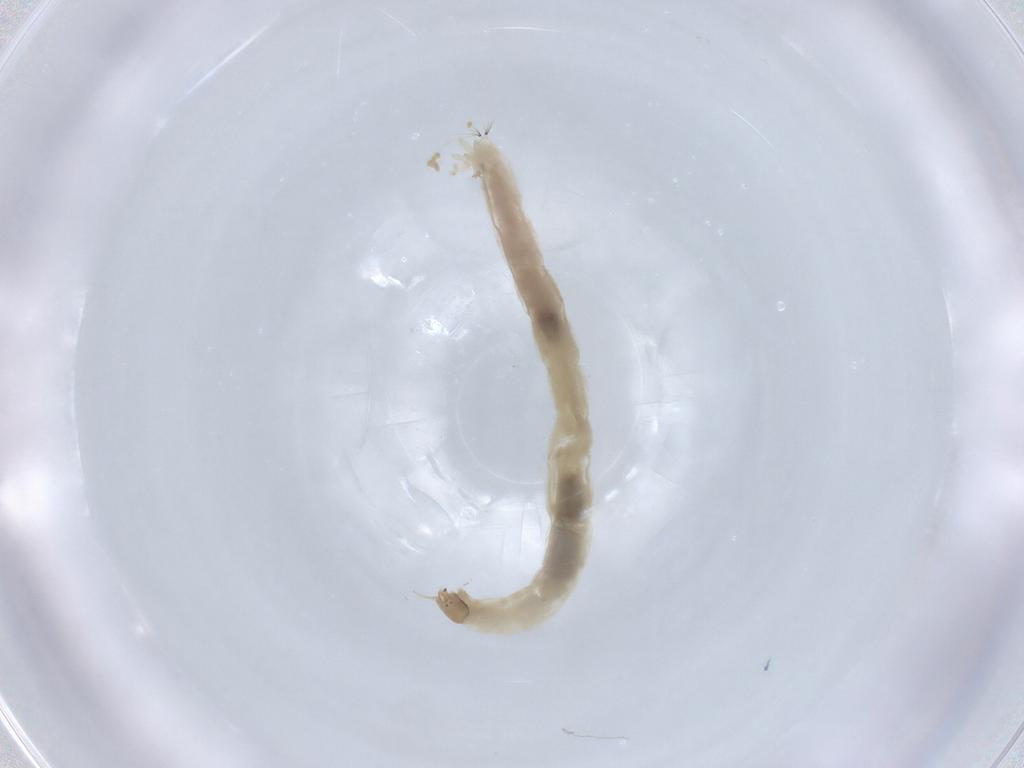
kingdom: Animalia
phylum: Arthropoda
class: Insecta
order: Diptera
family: Chironomidae
